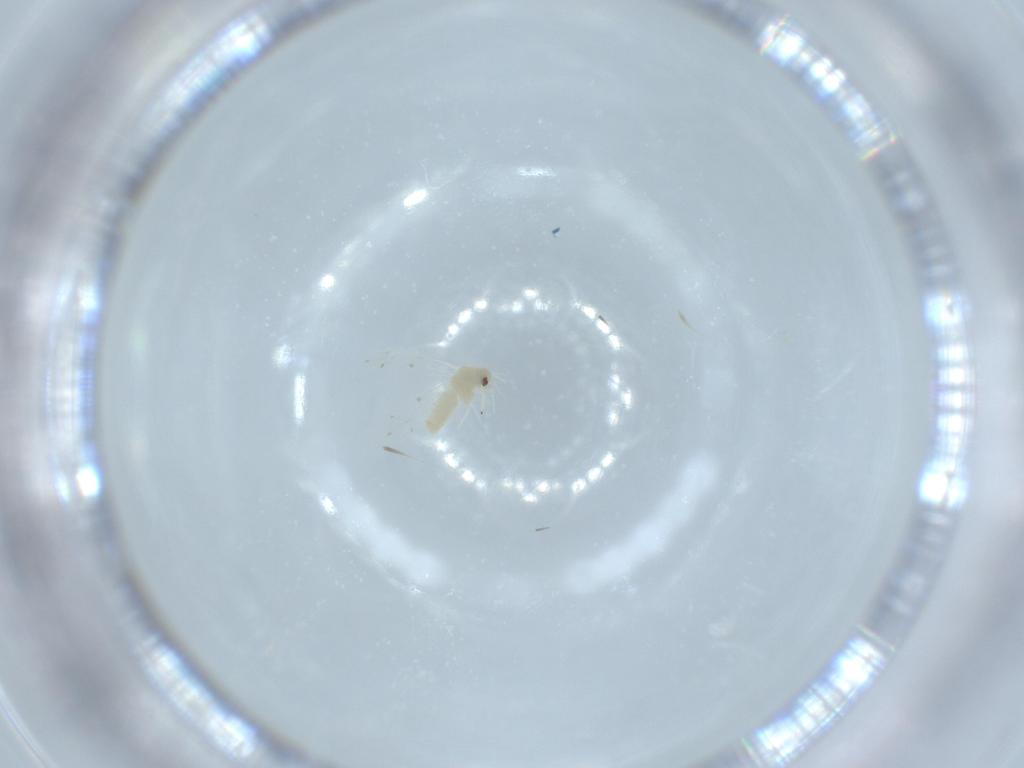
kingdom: Animalia
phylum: Arthropoda
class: Insecta
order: Hemiptera
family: Aleyrodidae
